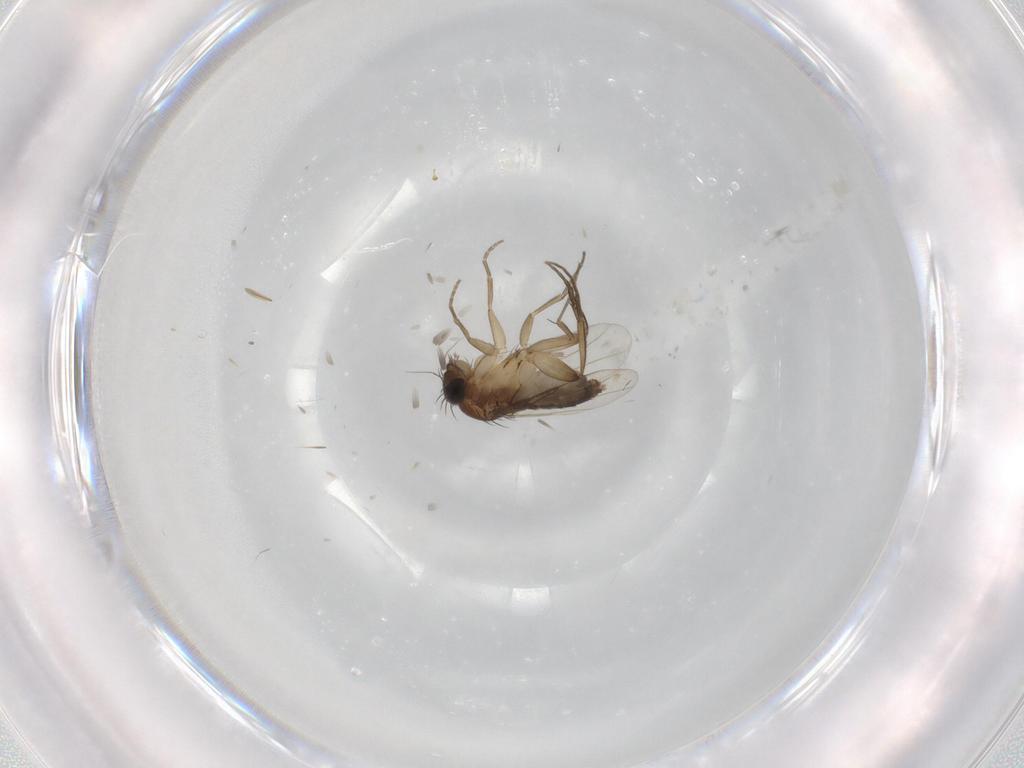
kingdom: Animalia
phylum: Arthropoda
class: Insecta
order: Diptera
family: Phoridae
